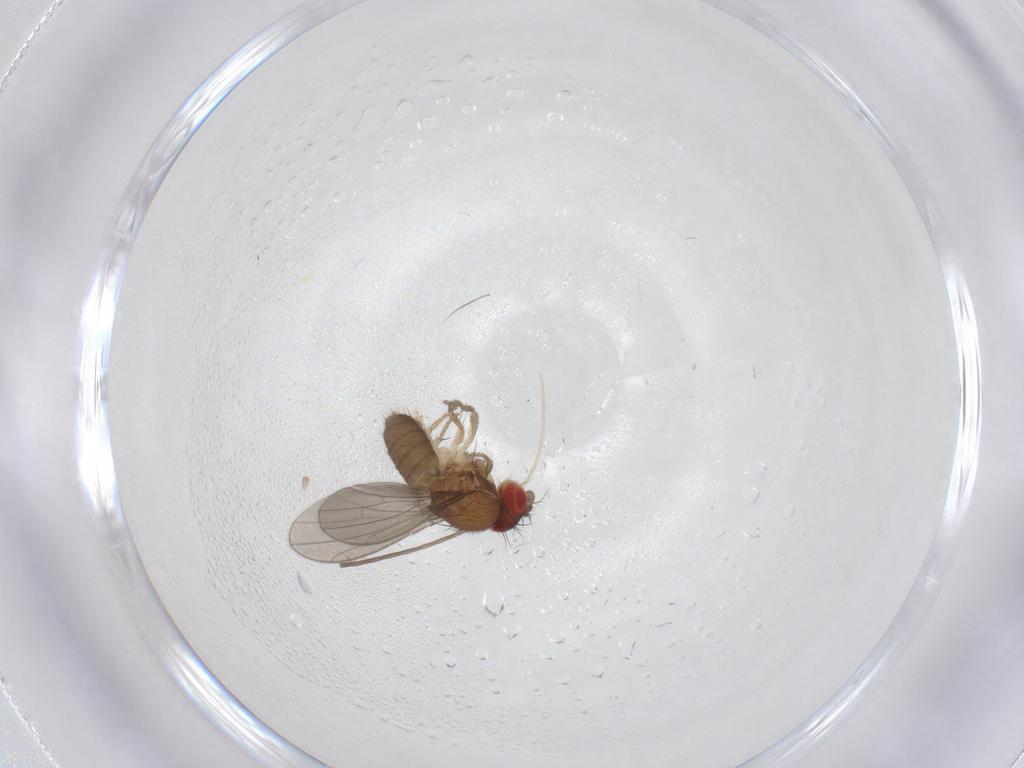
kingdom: Animalia
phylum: Arthropoda
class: Insecta
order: Diptera
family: Drosophilidae
